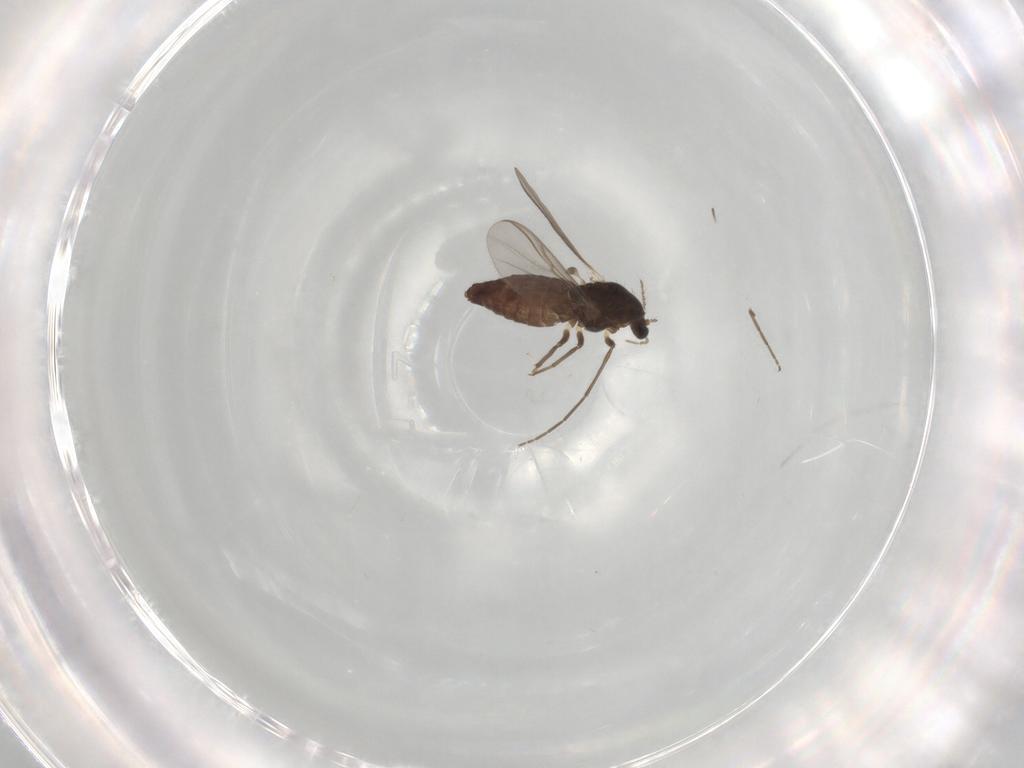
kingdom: Animalia
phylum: Arthropoda
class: Insecta
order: Diptera
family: Chironomidae
